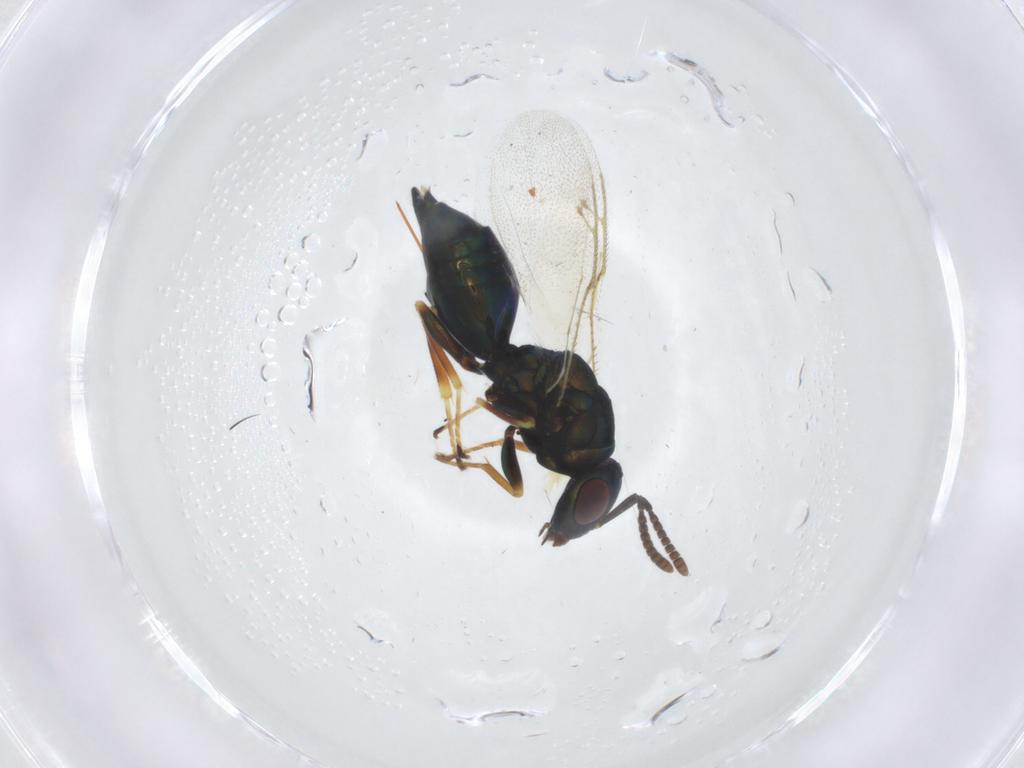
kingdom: Animalia
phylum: Arthropoda
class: Insecta
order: Hymenoptera
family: Pteromalidae
